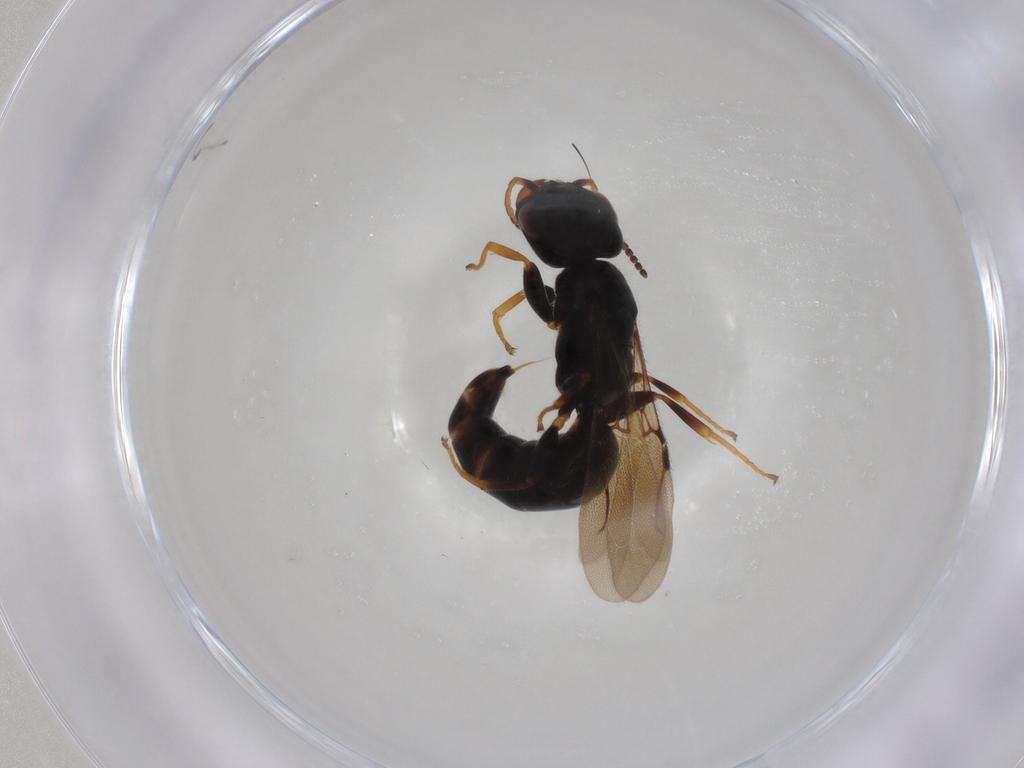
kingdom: Animalia
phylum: Arthropoda
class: Insecta
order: Hymenoptera
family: Bethylidae
